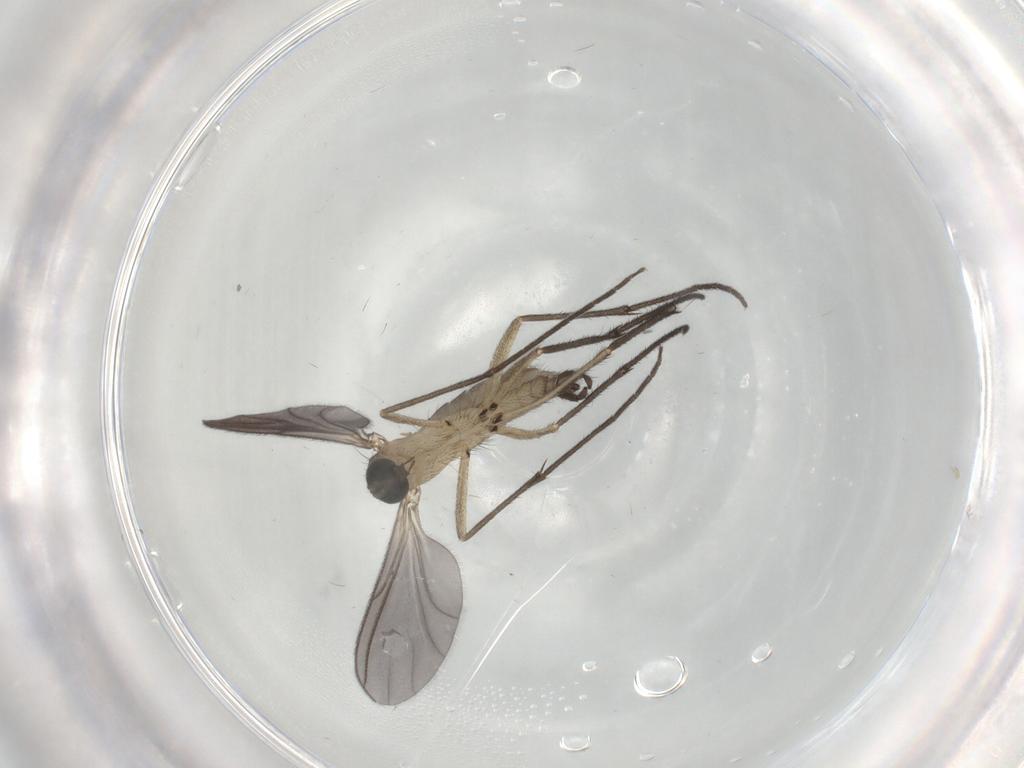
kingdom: Animalia
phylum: Arthropoda
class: Insecta
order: Diptera
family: Sciaridae
